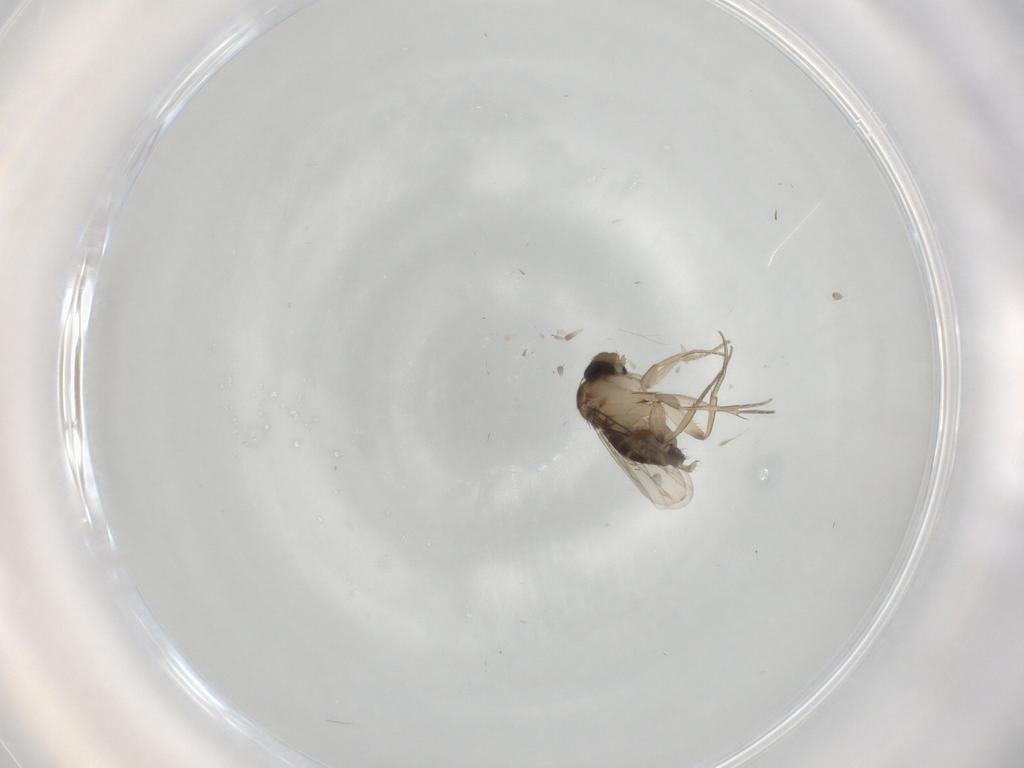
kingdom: Animalia
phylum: Arthropoda
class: Insecta
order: Diptera
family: Cecidomyiidae
